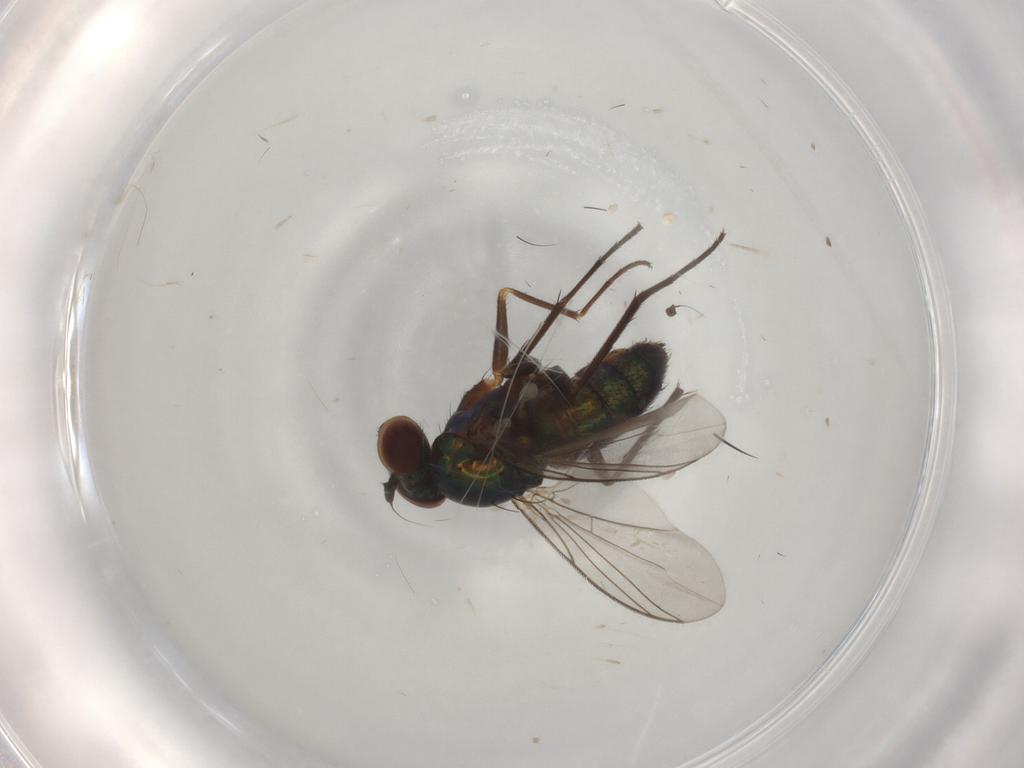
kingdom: Animalia
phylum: Arthropoda
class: Insecta
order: Diptera
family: Dolichopodidae
